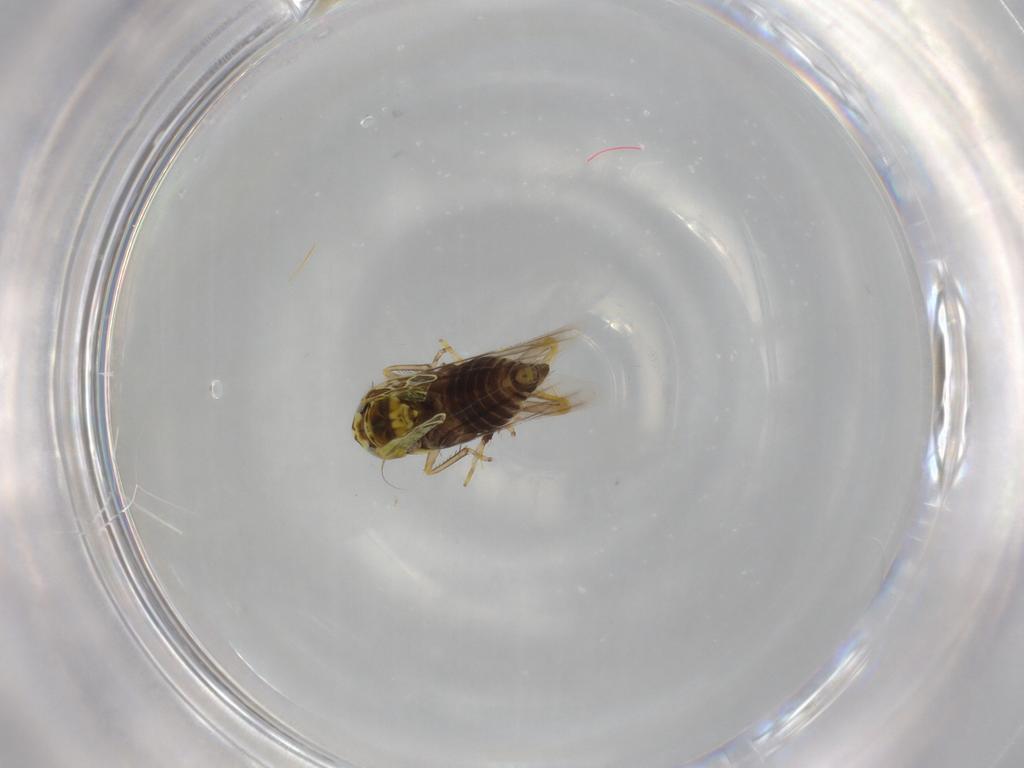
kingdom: Animalia
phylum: Arthropoda
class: Insecta
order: Hemiptera
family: Cicadellidae
